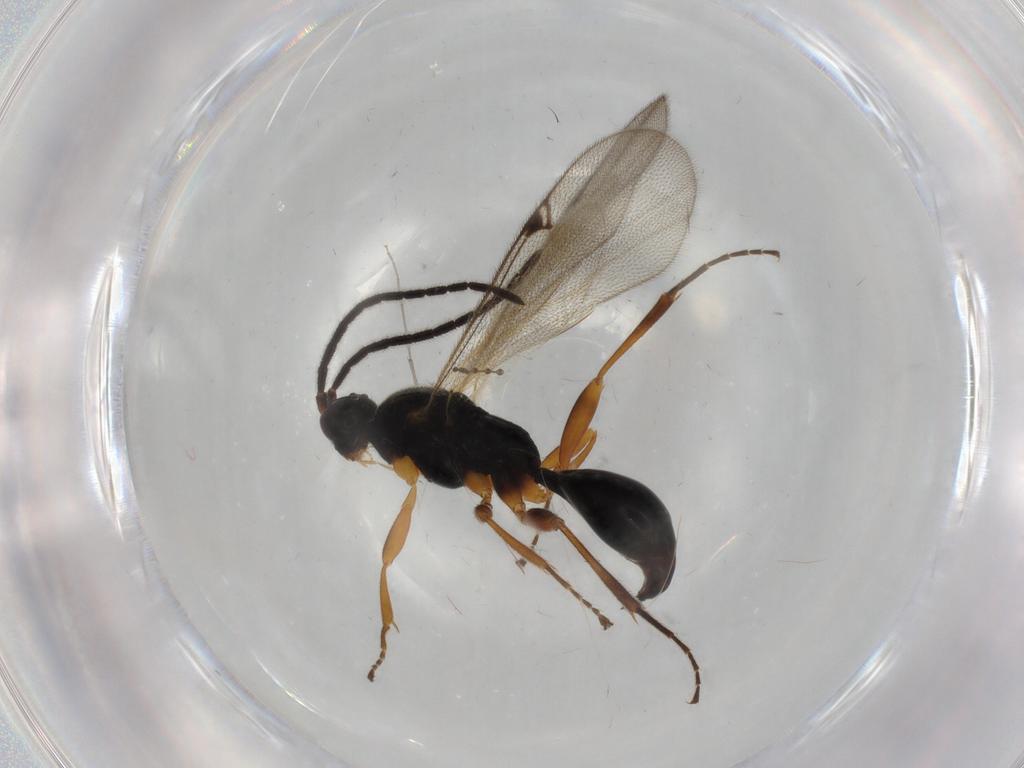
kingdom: Animalia
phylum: Arthropoda
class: Insecta
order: Hymenoptera
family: Proctotrupidae
